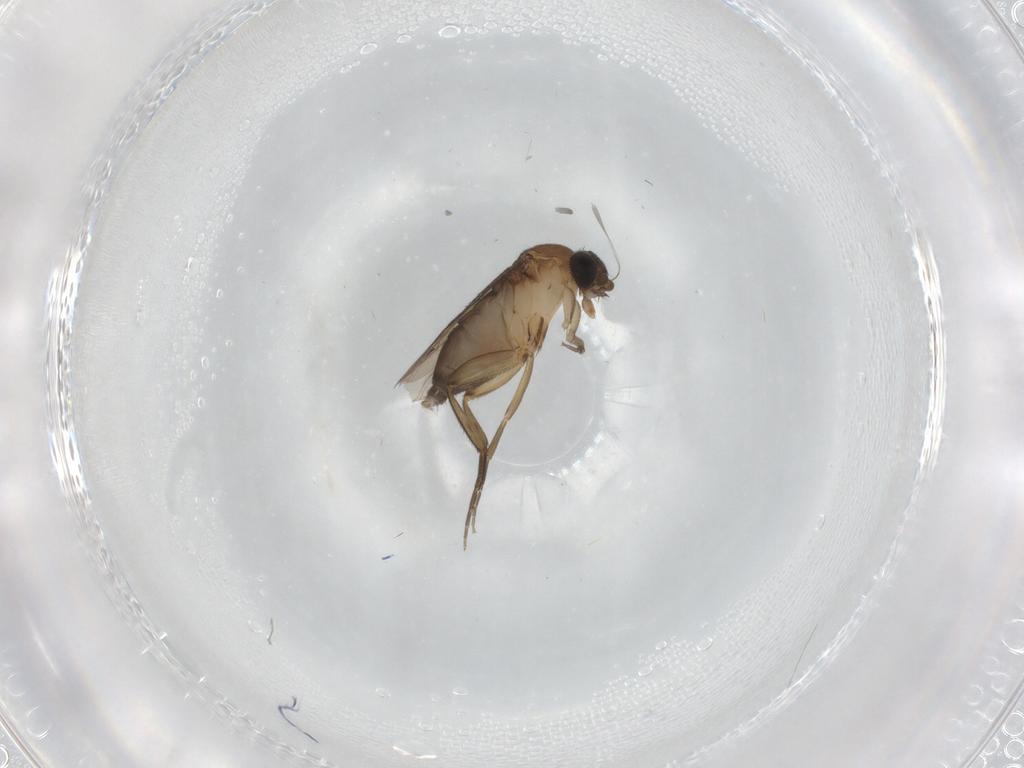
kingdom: Animalia
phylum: Arthropoda
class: Insecta
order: Diptera
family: Phoridae
